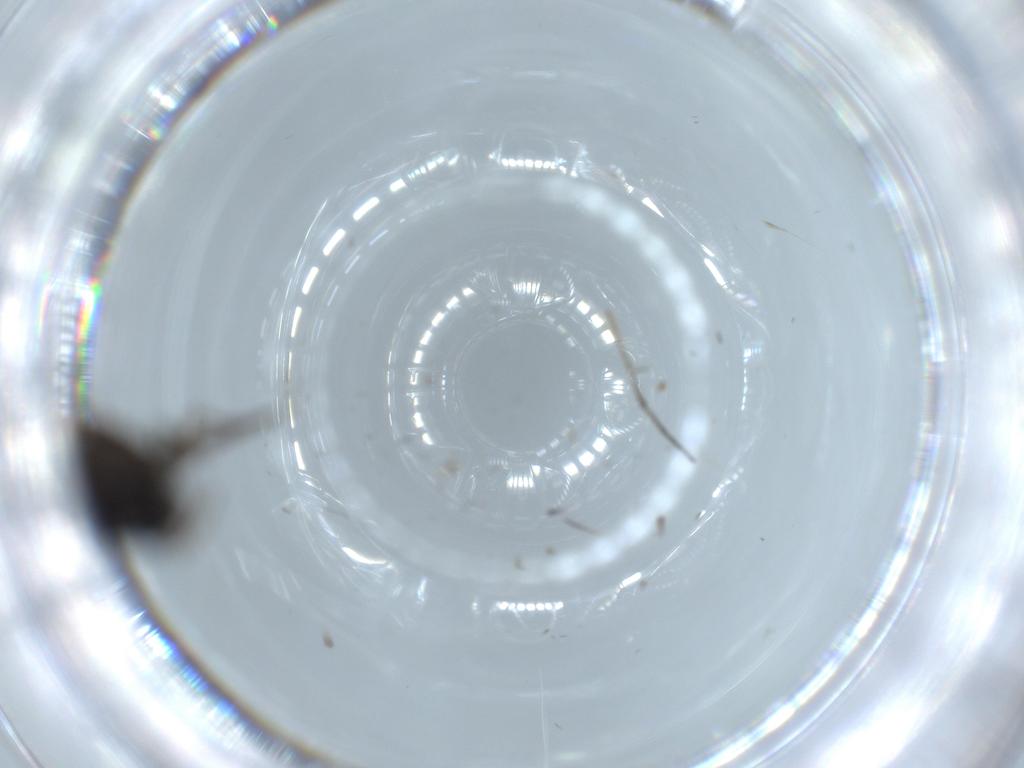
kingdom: Animalia
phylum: Arthropoda
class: Insecta
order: Diptera
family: Sciaridae
